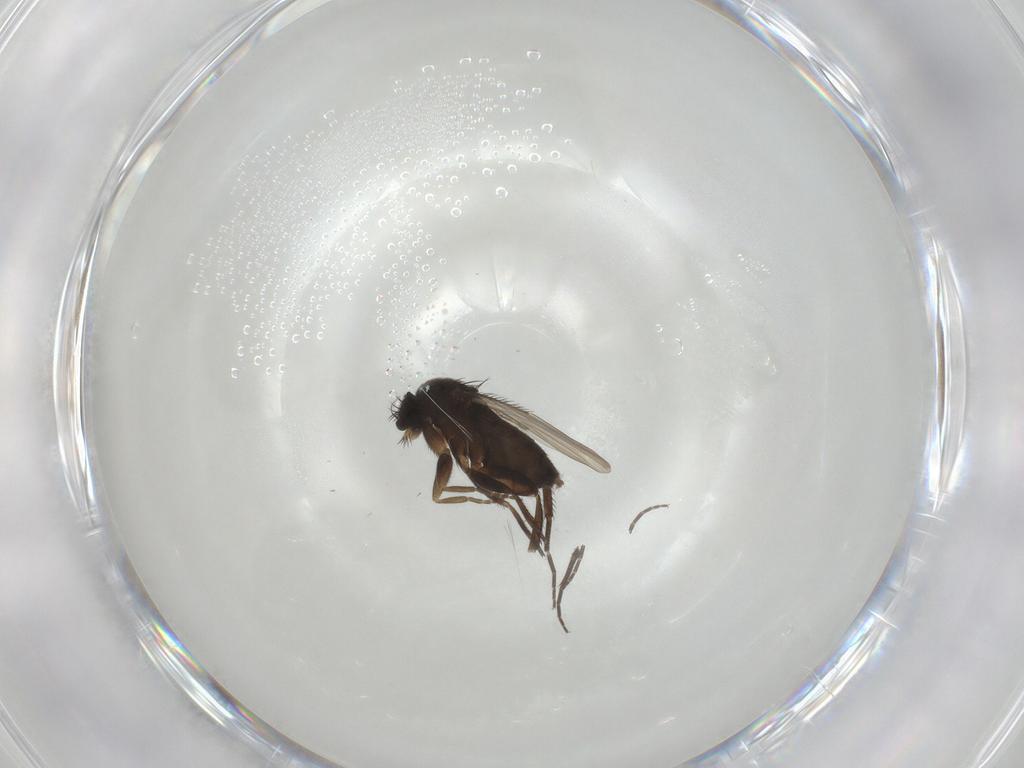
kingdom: Animalia
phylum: Arthropoda
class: Insecta
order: Diptera
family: Phoridae
